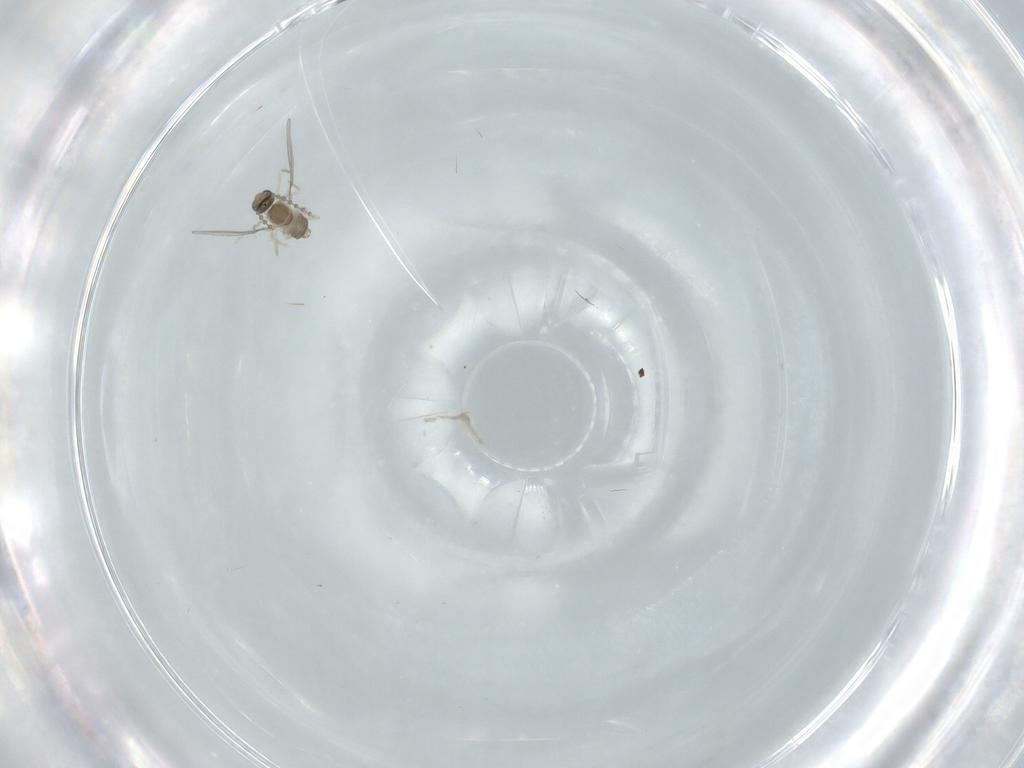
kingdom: Animalia
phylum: Arthropoda
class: Insecta
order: Diptera
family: Cecidomyiidae
